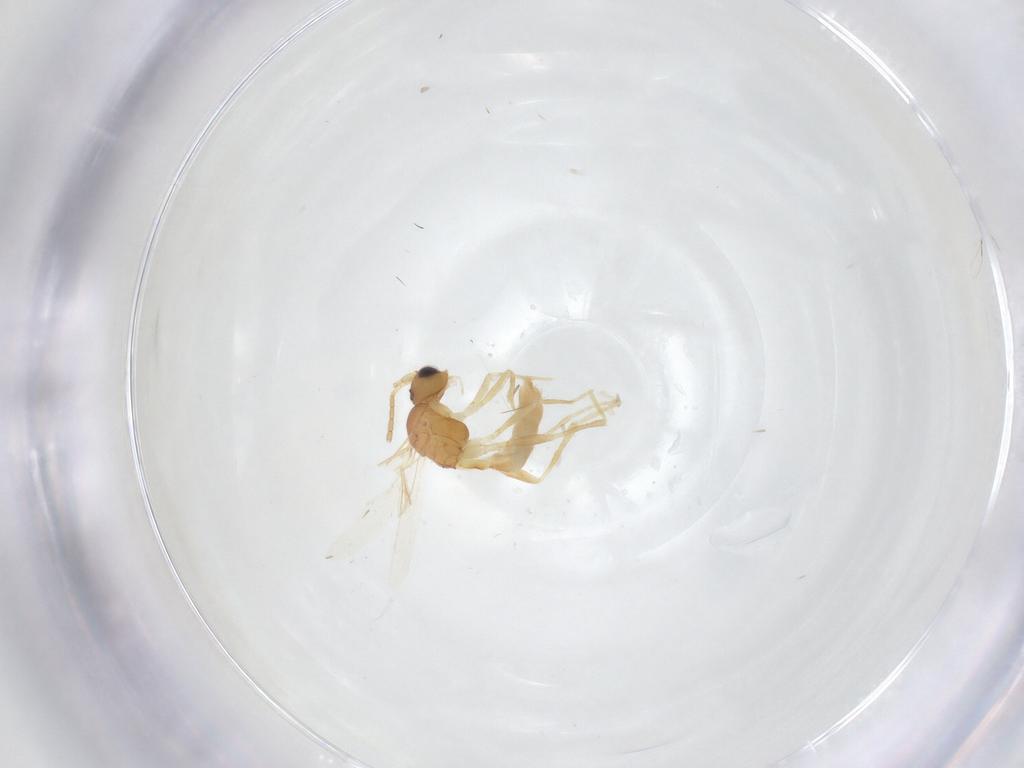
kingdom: Animalia
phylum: Arthropoda
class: Insecta
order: Hymenoptera
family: Braconidae
